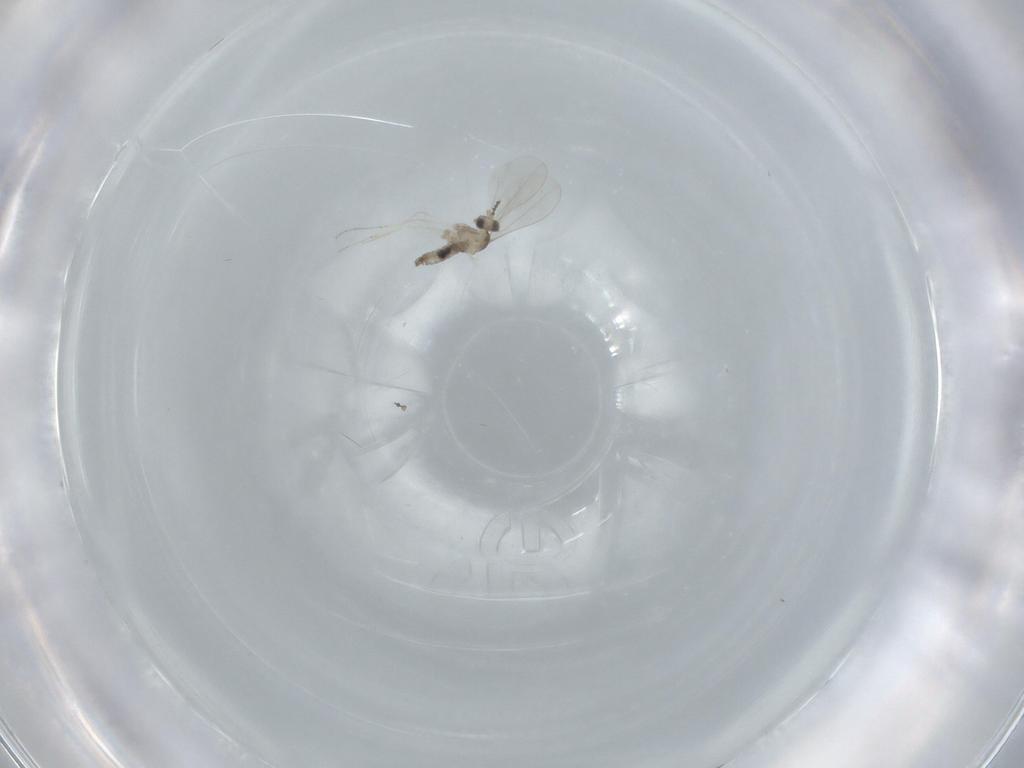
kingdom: Animalia
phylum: Arthropoda
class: Insecta
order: Diptera
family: Cecidomyiidae
